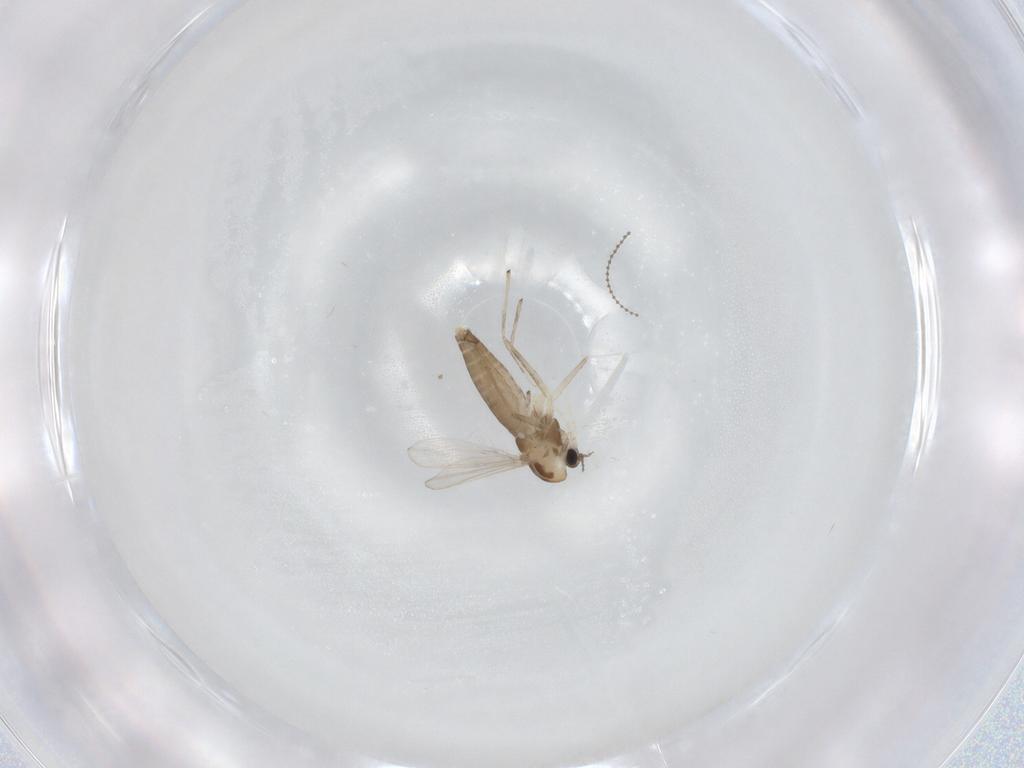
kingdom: Animalia
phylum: Arthropoda
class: Insecta
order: Diptera
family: Chironomidae
